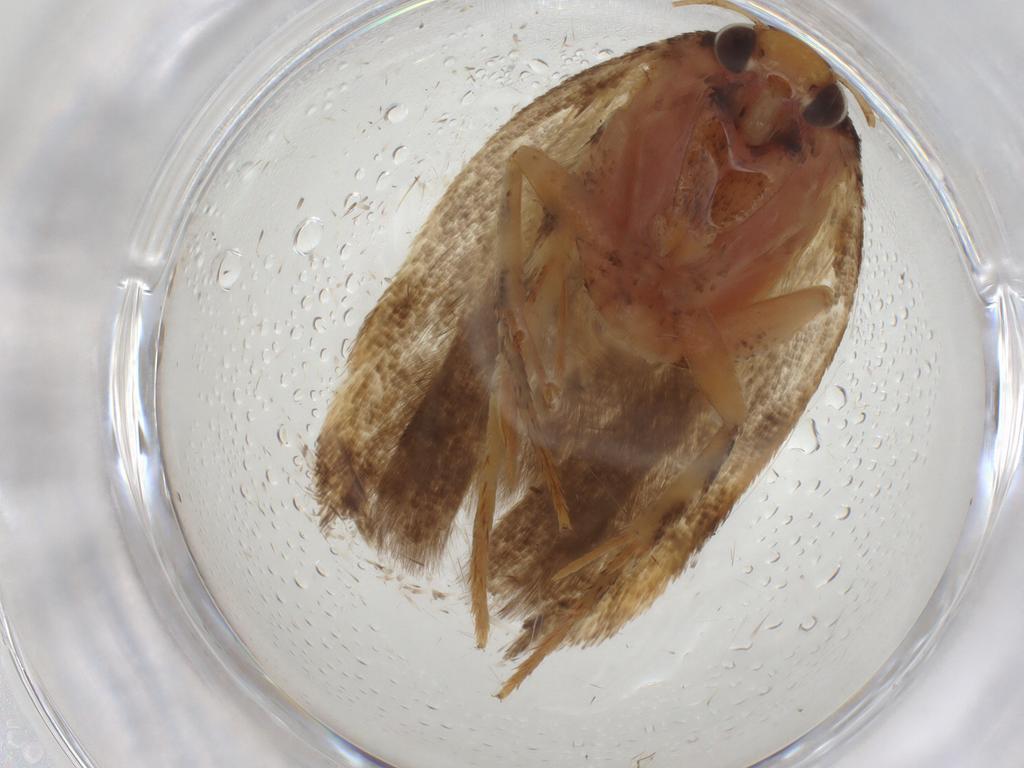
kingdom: Animalia
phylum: Arthropoda
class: Insecta
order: Lepidoptera
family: Gelechiidae
